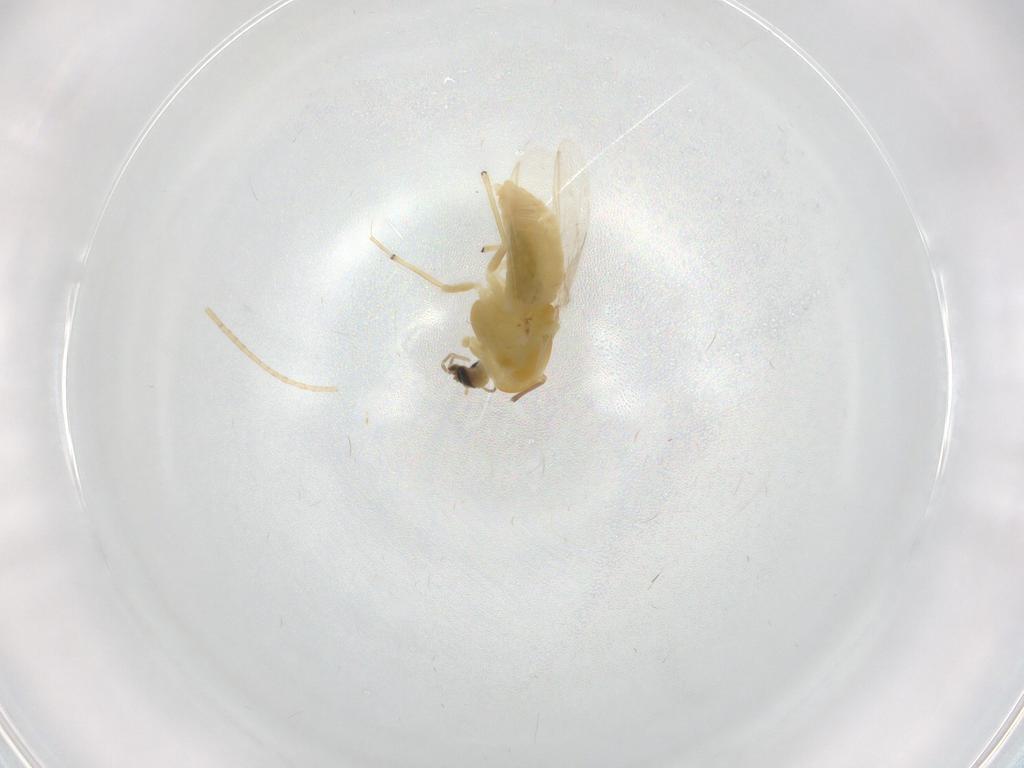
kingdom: Animalia
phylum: Arthropoda
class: Insecta
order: Diptera
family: Chironomidae
